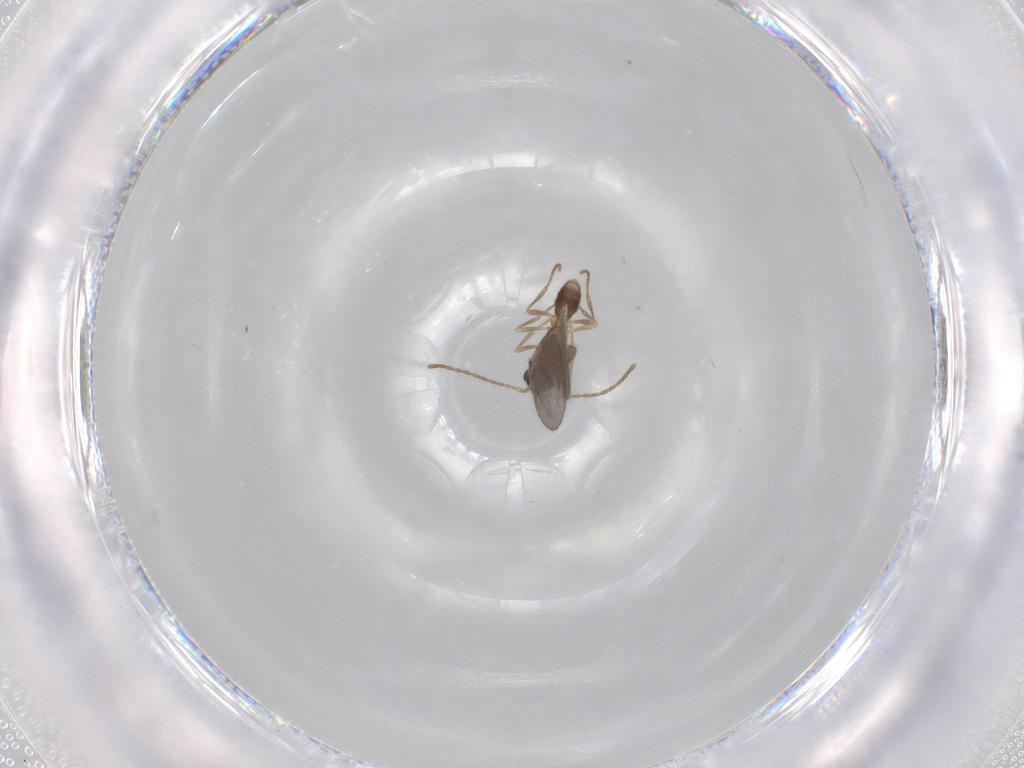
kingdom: Animalia
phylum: Arthropoda
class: Insecta
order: Hymenoptera
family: Formicidae
